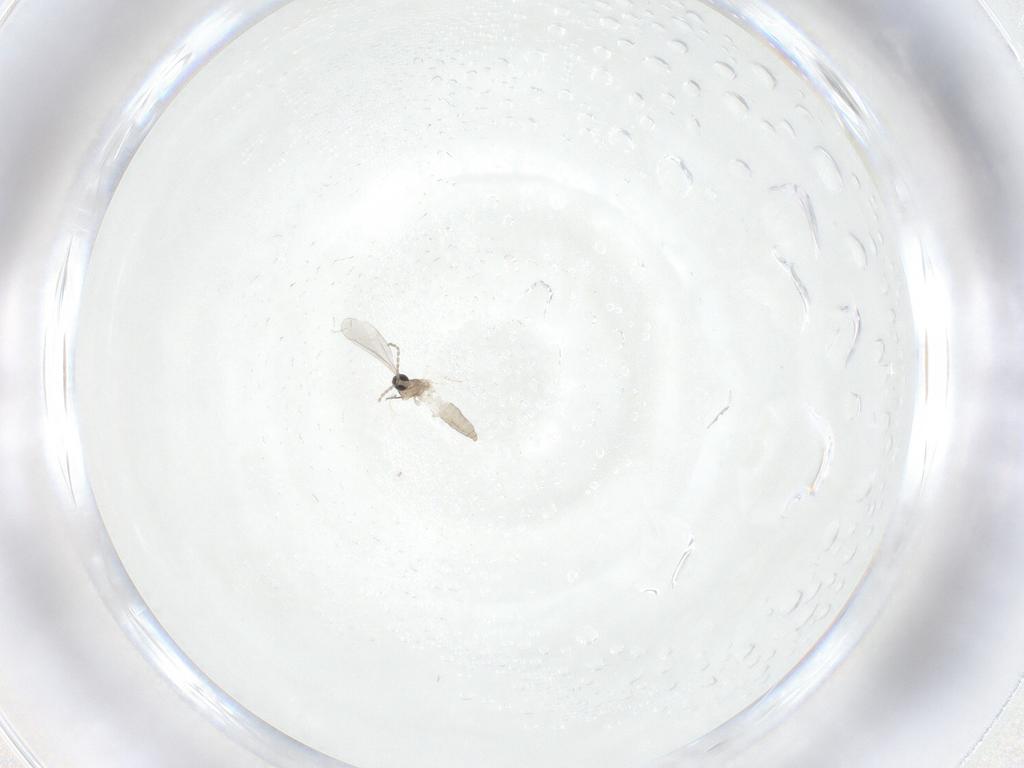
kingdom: Animalia
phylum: Arthropoda
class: Insecta
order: Diptera
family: Cecidomyiidae
